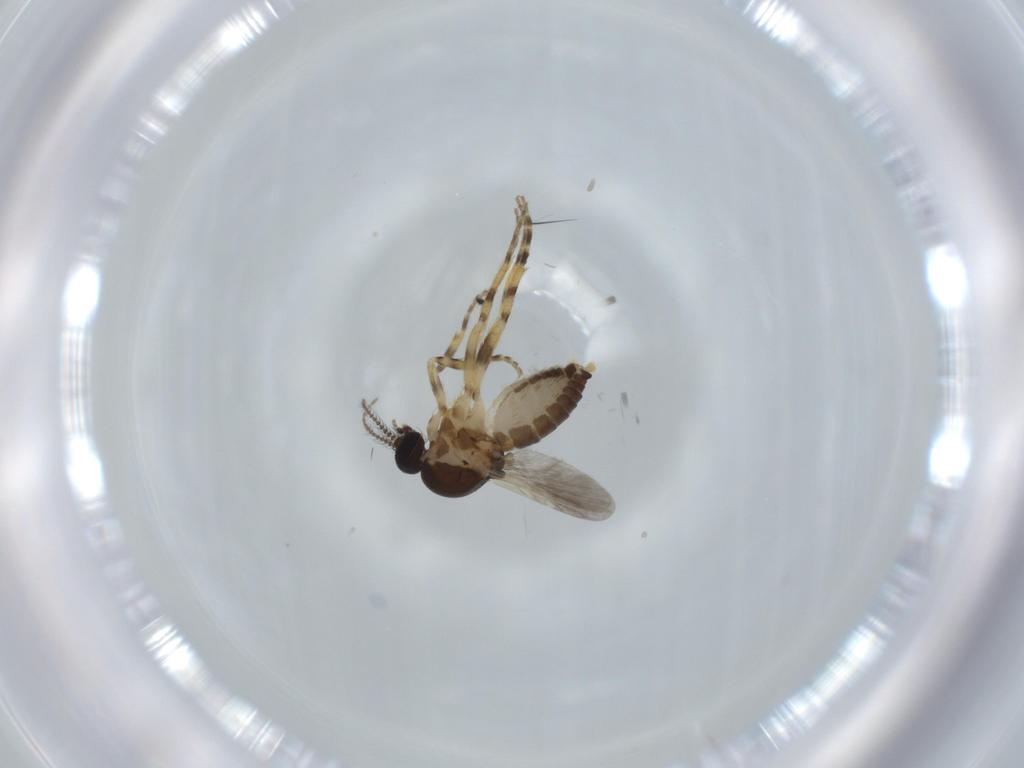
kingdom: Animalia
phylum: Arthropoda
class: Insecta
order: Diptera
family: Ceratopogonidae
